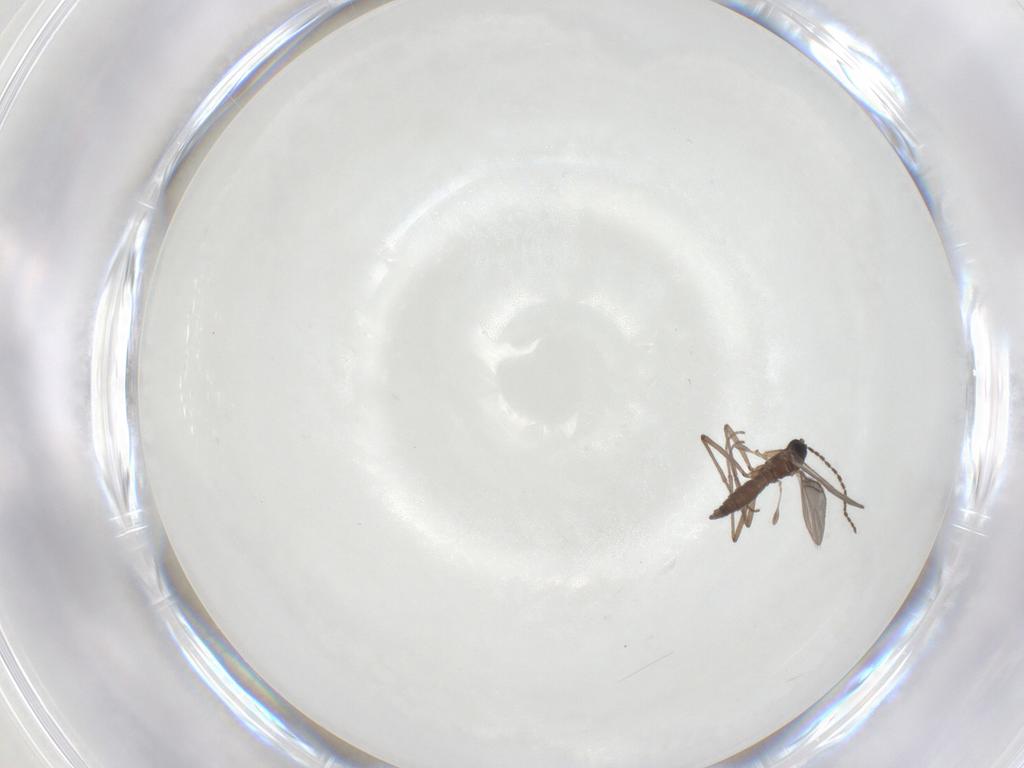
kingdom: Animalia
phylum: Arthropoda
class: Insecta
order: Diptera
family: Sciaridae
